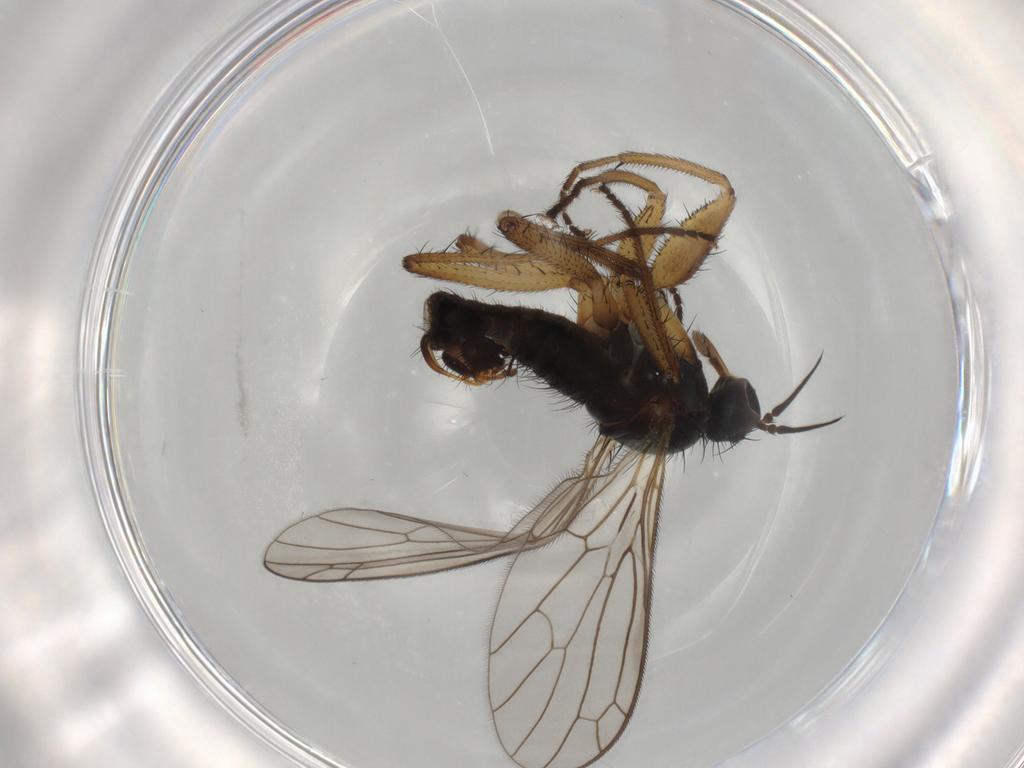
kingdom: Animalia
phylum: Arthropoda
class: Insecta
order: Diptera
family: Cecidomyiidae
